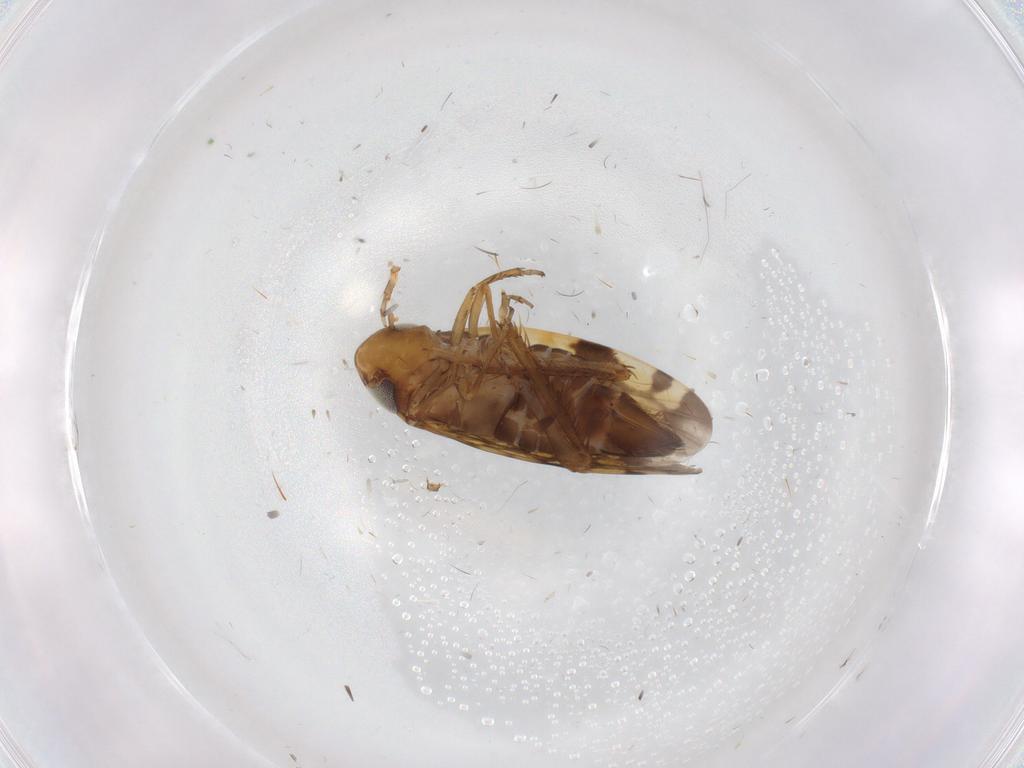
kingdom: Animalia
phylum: Arthropoda
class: Insecta
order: Hemiptera
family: Cicadellidae
